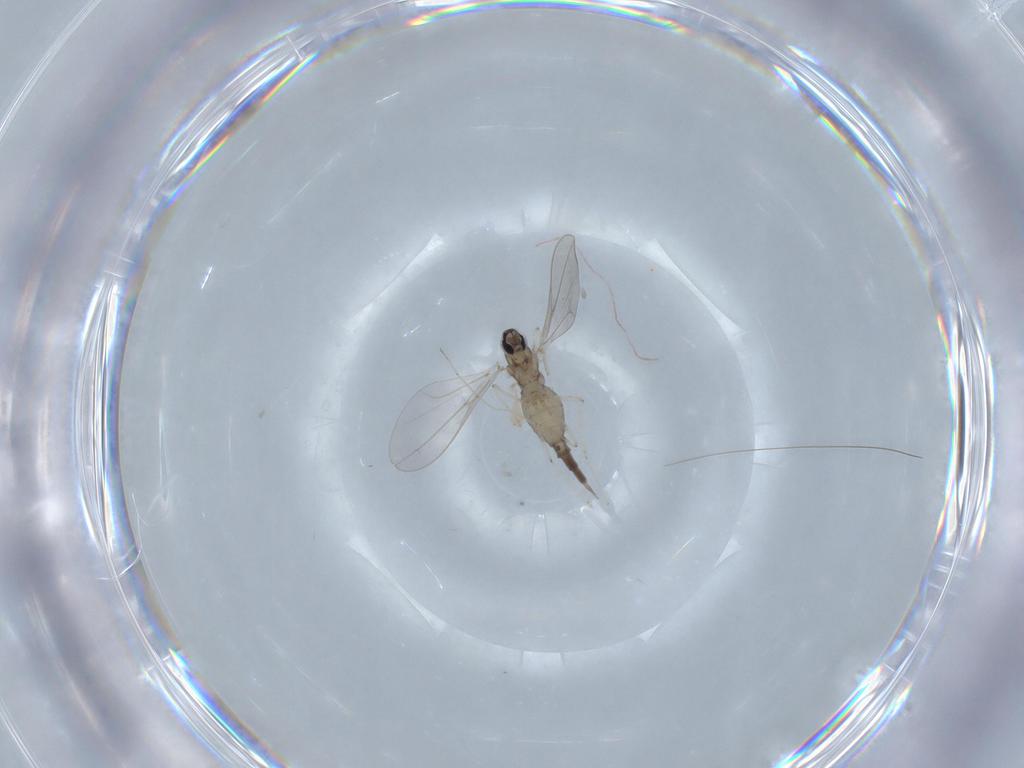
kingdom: Animalia
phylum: Arthropoda
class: Insecta
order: Diptera
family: Cecidomyiidae
